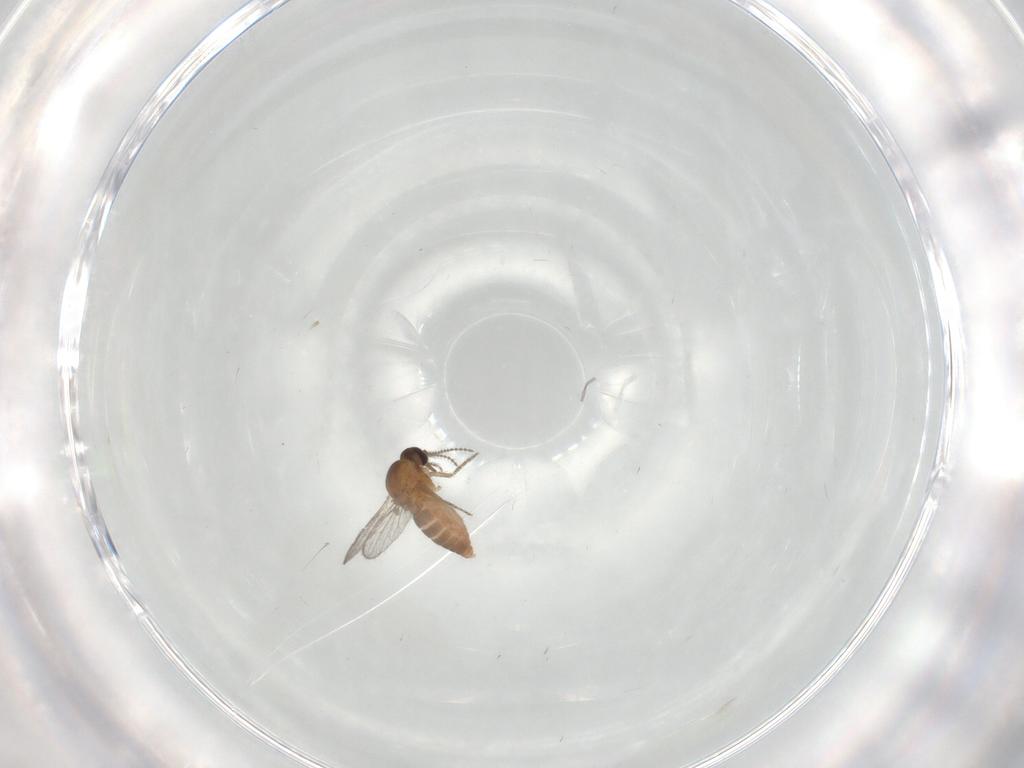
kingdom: Animalia
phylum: Arthropoda
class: Insecta
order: Diptera
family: Ceratopogonidae
